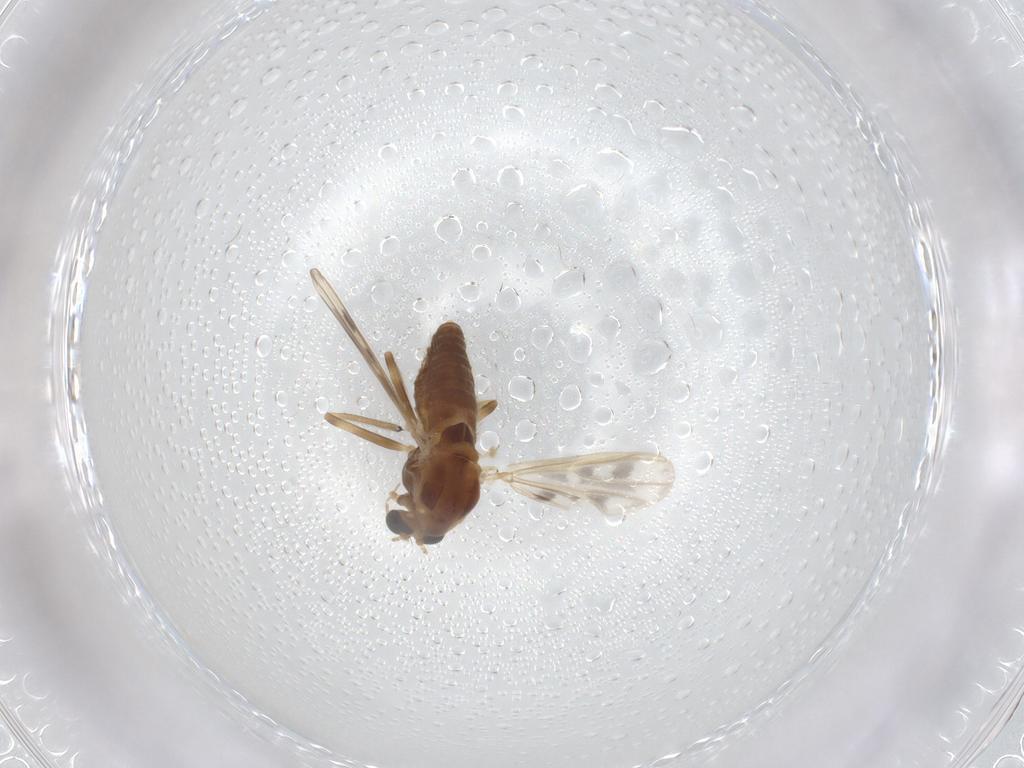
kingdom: Animalia
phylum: Arthropoda
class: Insecta
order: Diptera
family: Chironomidae
